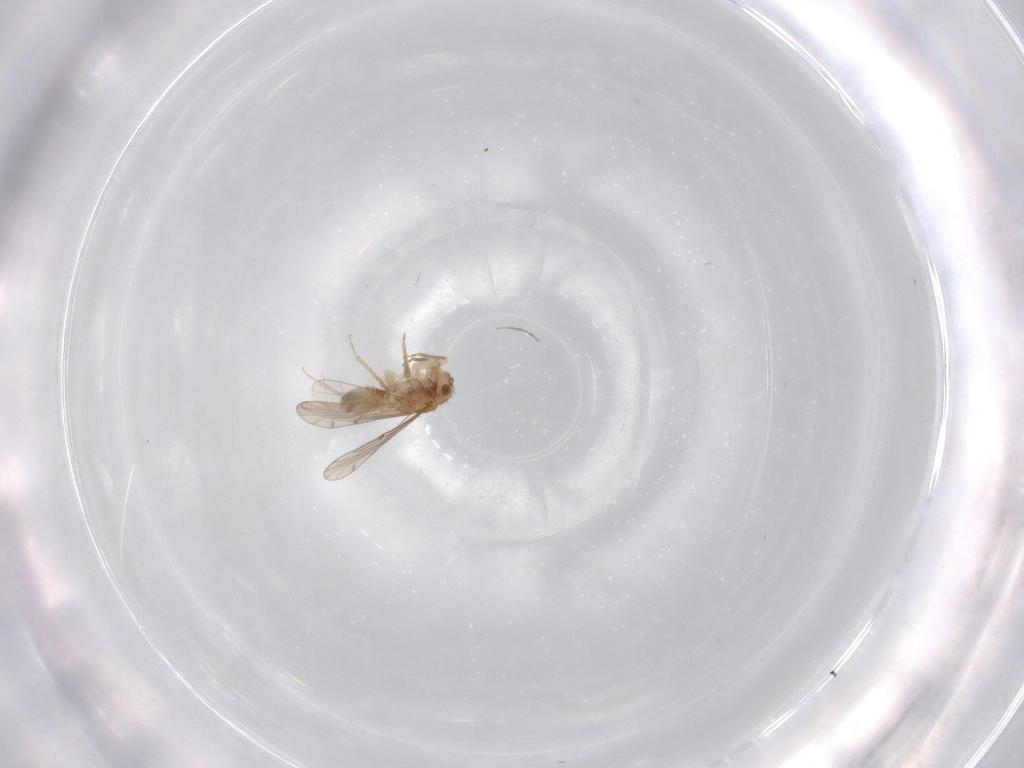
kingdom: Animalia
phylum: Arthropoda
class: Insecta
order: Psocodea
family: Ectopsocidae
